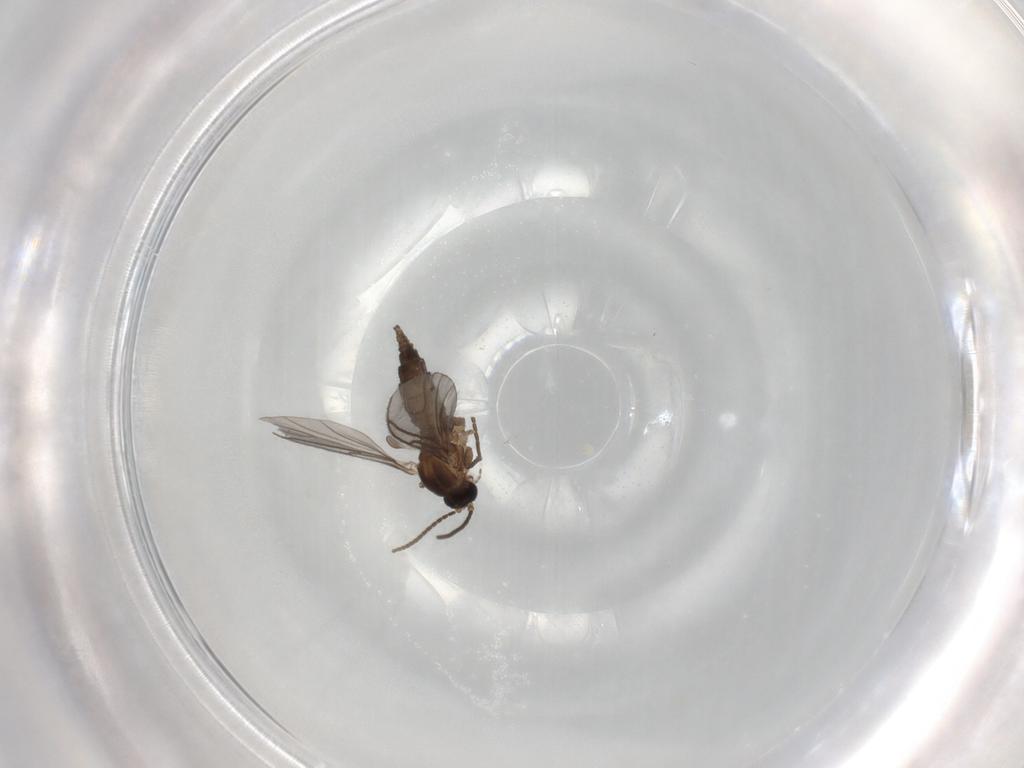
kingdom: Animalia
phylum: Arthropoda
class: Insecta
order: Diptera
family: Sciaridae
